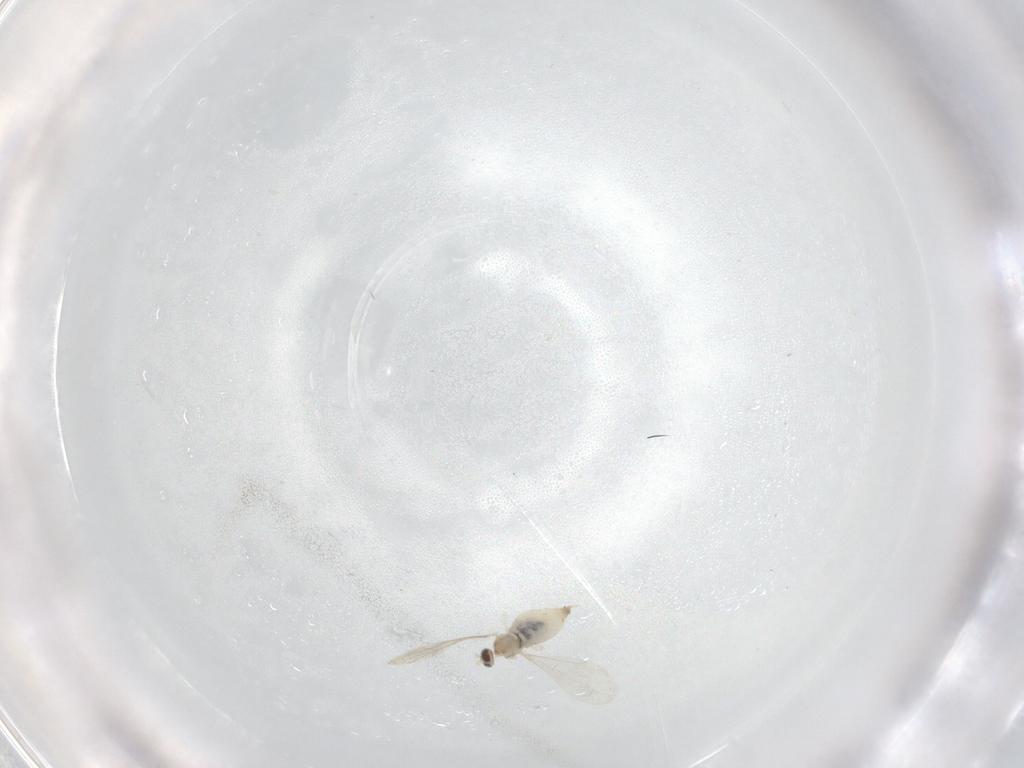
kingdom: Animalia
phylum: Arthropoda
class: Insecta
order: Diptera
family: Cecidomyiidae
